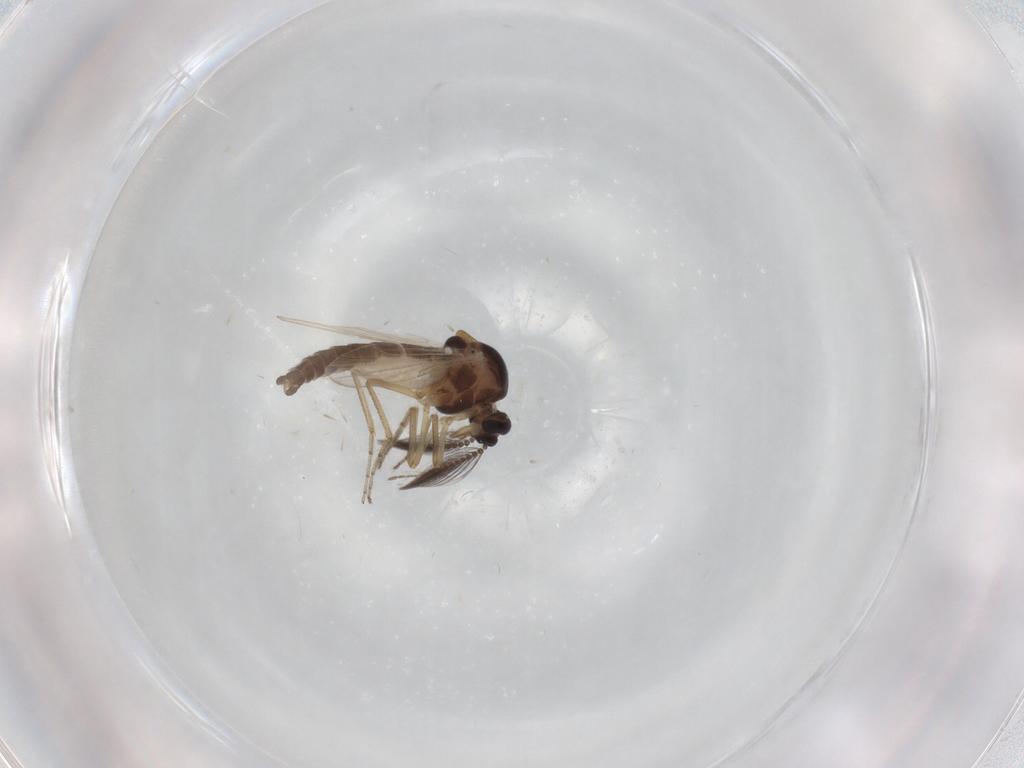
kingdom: Animalia
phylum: Arthropoda
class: Insecta
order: Diptera
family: Ceratopogonidae
